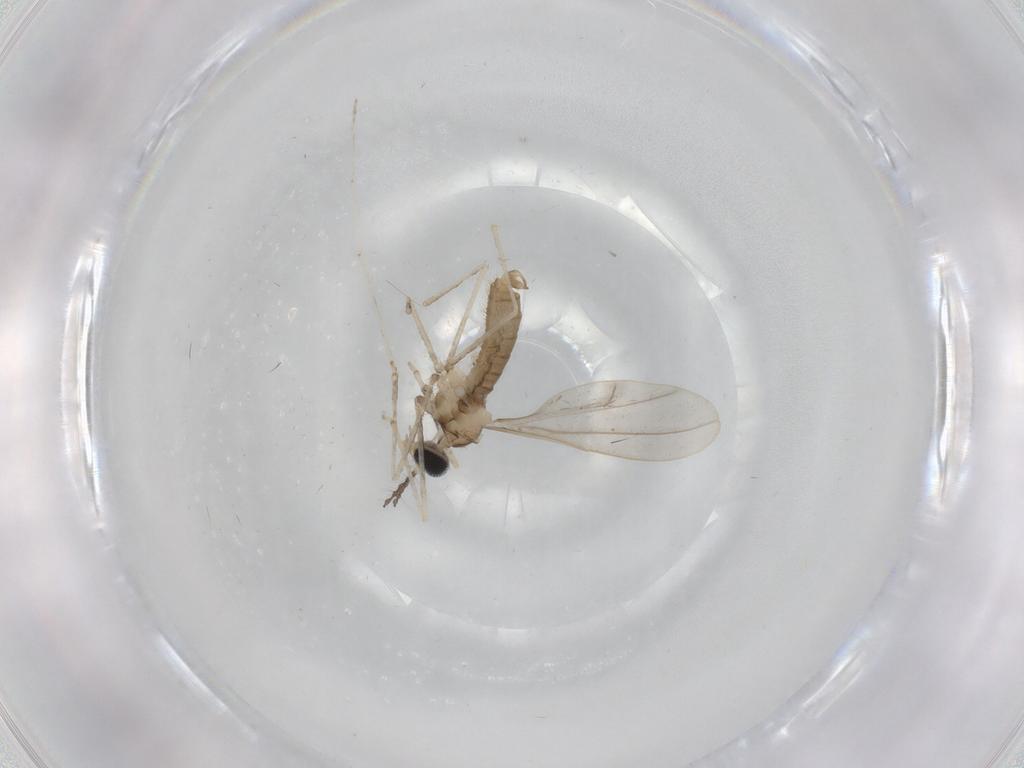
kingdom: Animalia
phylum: Arthropoda
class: Insecta
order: Diptera
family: Cecidomyiidae
